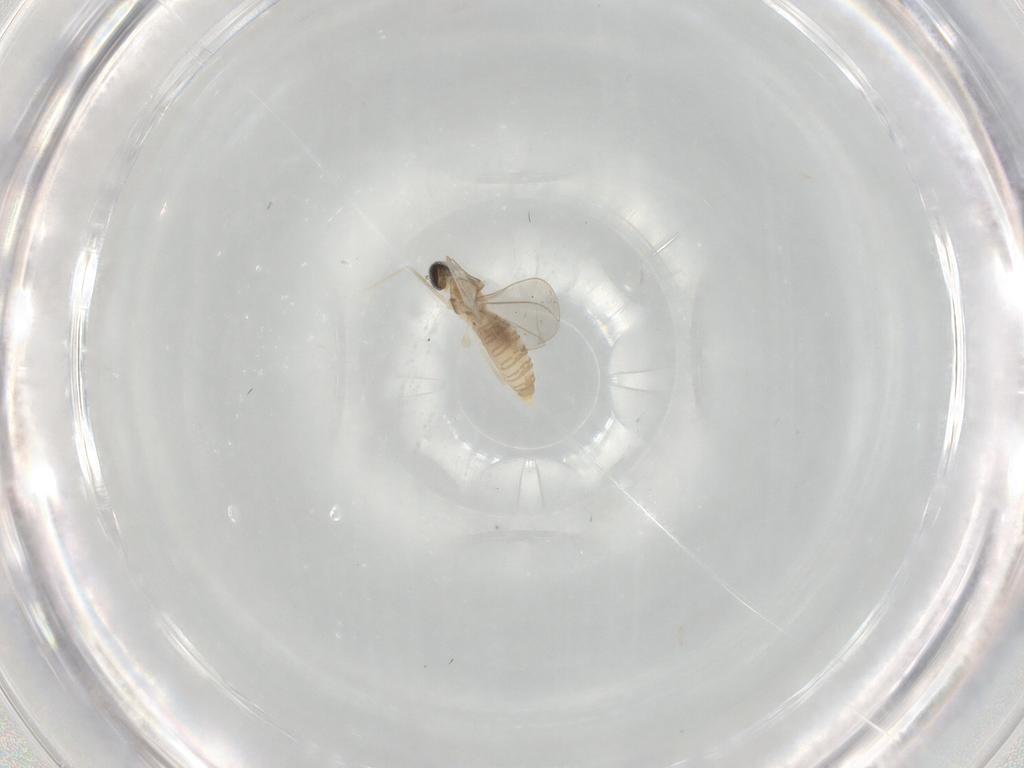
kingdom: Animalia
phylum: Arthropoda
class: Insecta
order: Diptera
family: Cecidomyiidae
